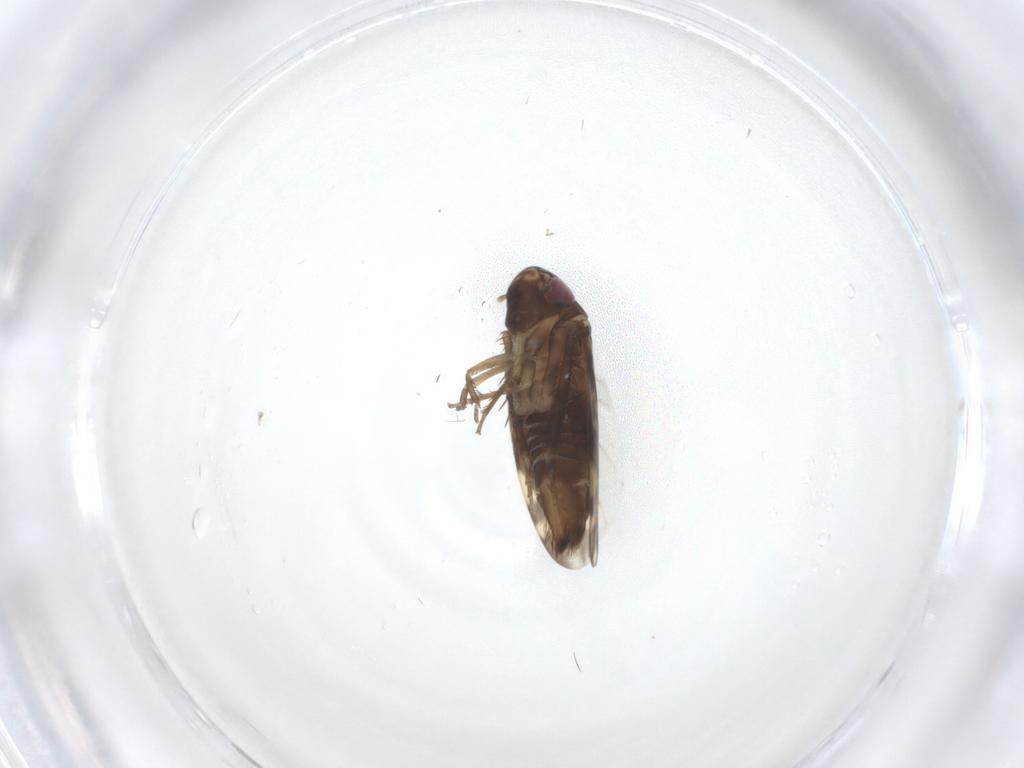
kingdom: Animalia
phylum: Arthropoda
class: Insecta
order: Hemiptera
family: Cicadellidae
